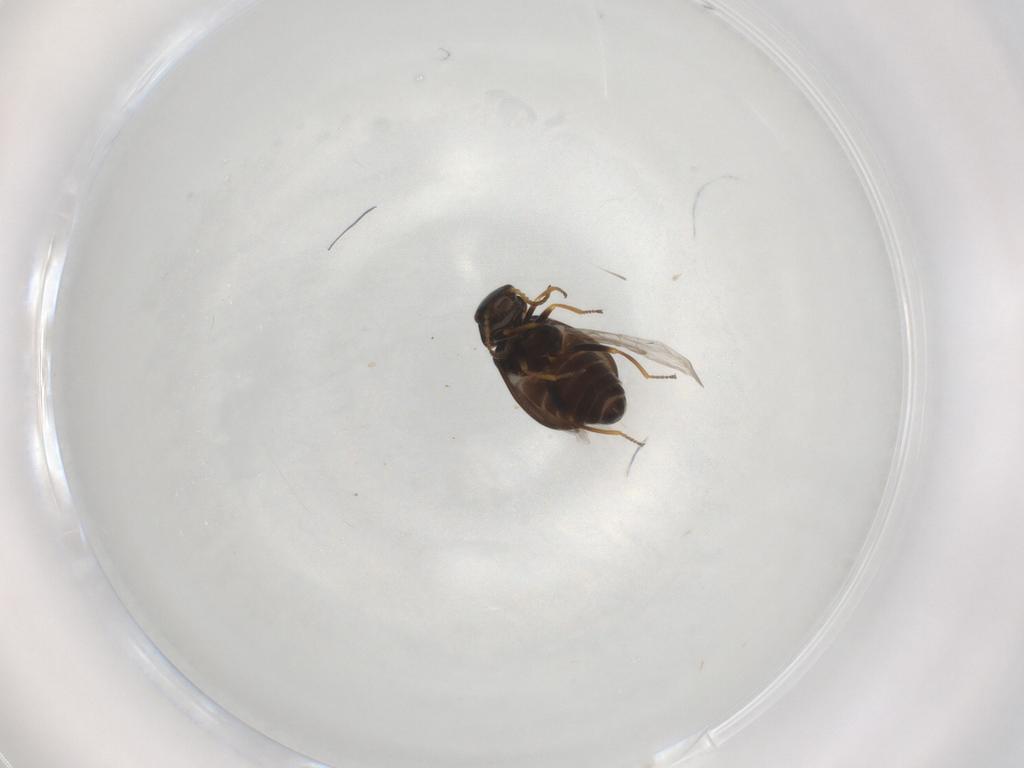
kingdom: Animalia
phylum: Arthropoda
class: Insecta
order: Coleoptera
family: Melyridae
